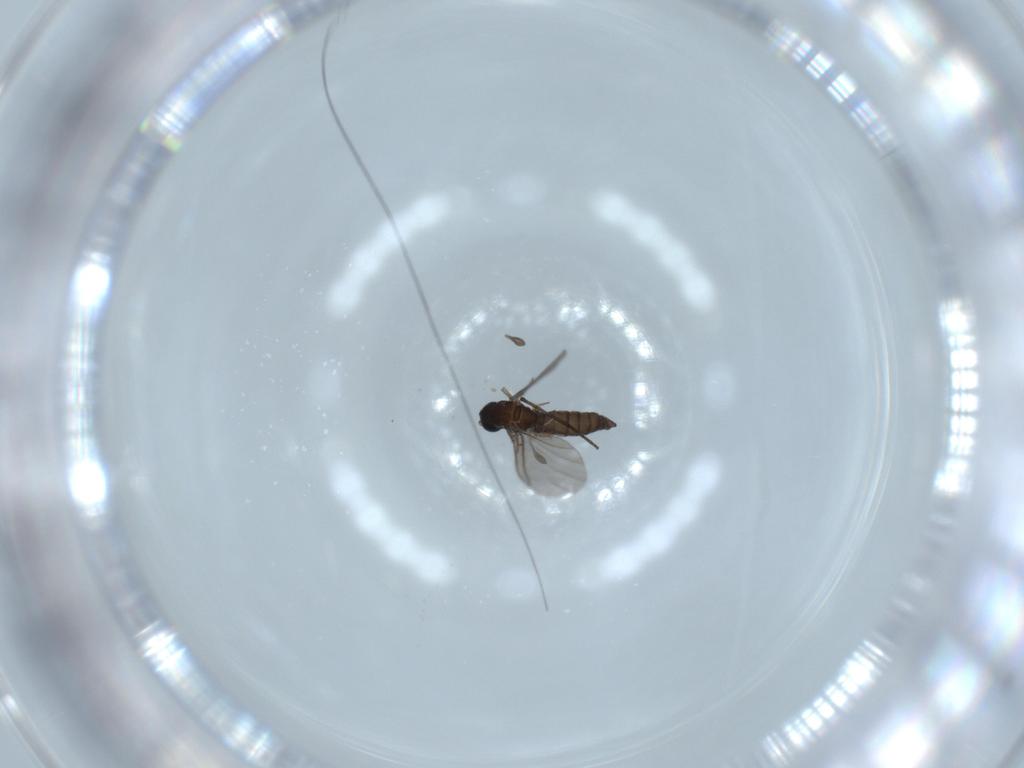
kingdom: Animalia
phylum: Arthropoda
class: Insecta
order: Diptera
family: Sciaridae
